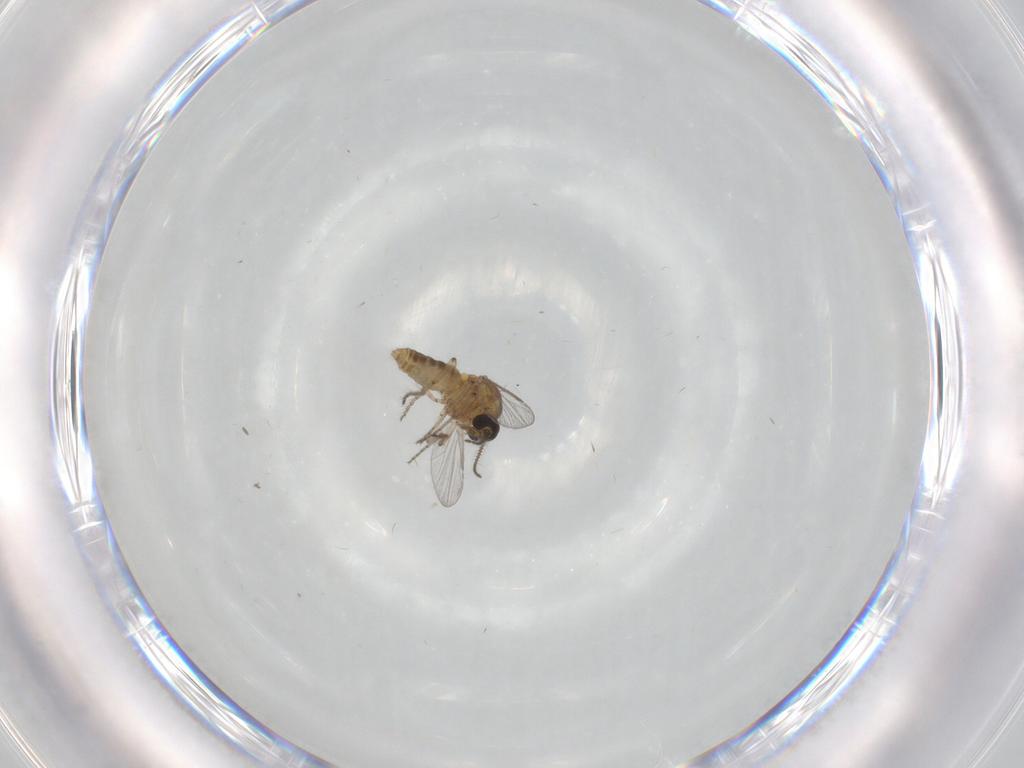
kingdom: Animalia
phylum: Arthropoda
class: Insecta
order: Diptera
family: Ceratopogonidae
